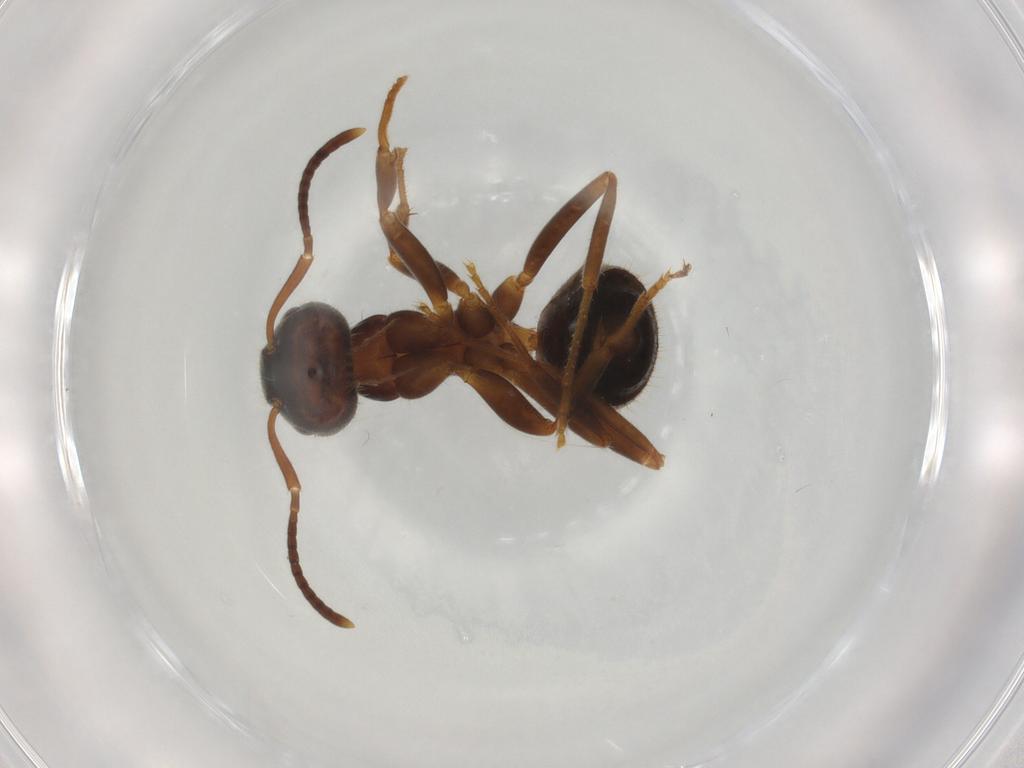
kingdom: Animalia
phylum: Arthropoda
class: Insecta
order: Hymenoptera
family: Formicidae
